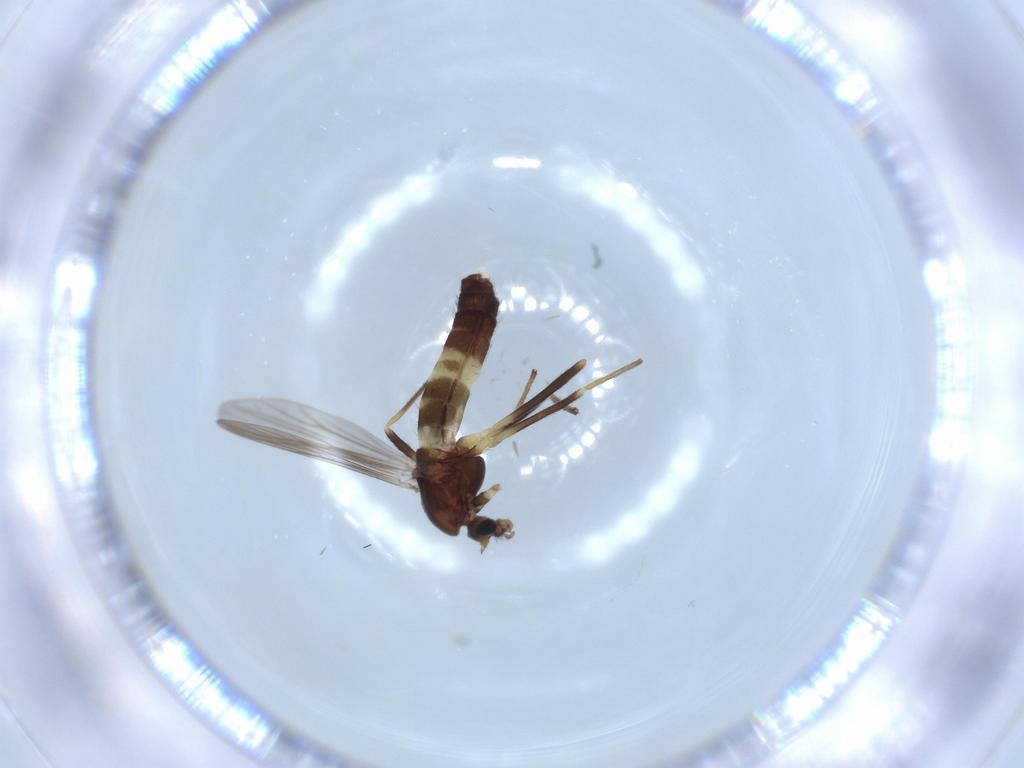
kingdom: Animalia
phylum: Arthropoda
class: Insecta
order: Diptera
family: Chironomidae
